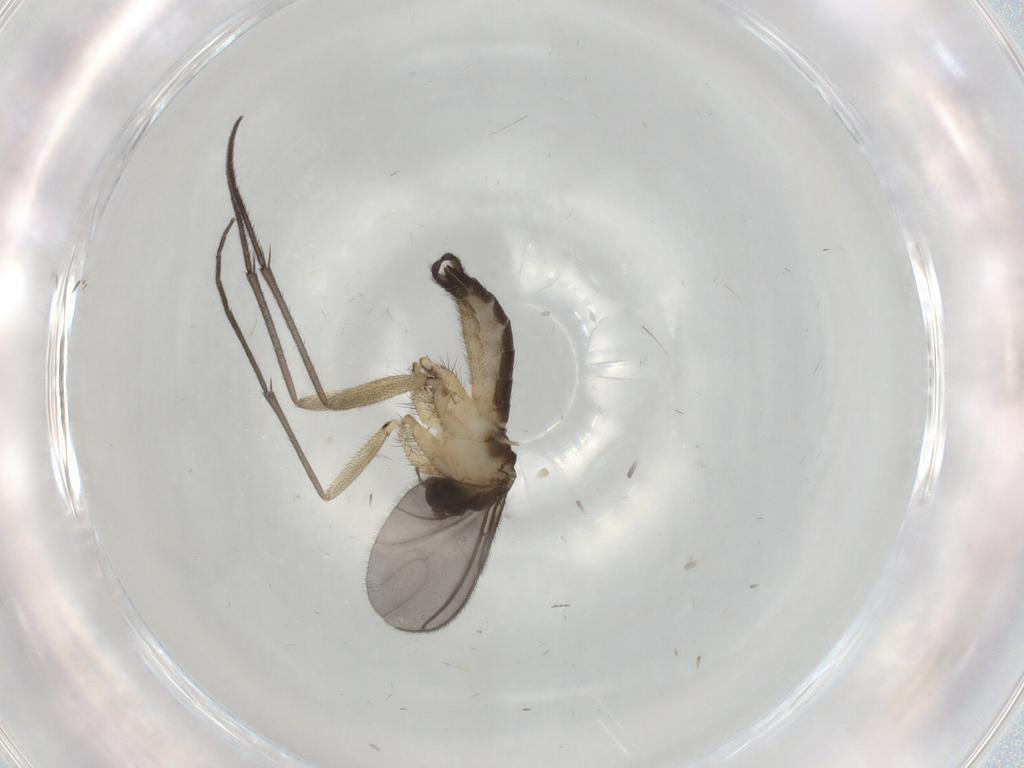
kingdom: Animalia
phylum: Arthropoda
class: Insecta
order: Diptera
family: Sciaridae
